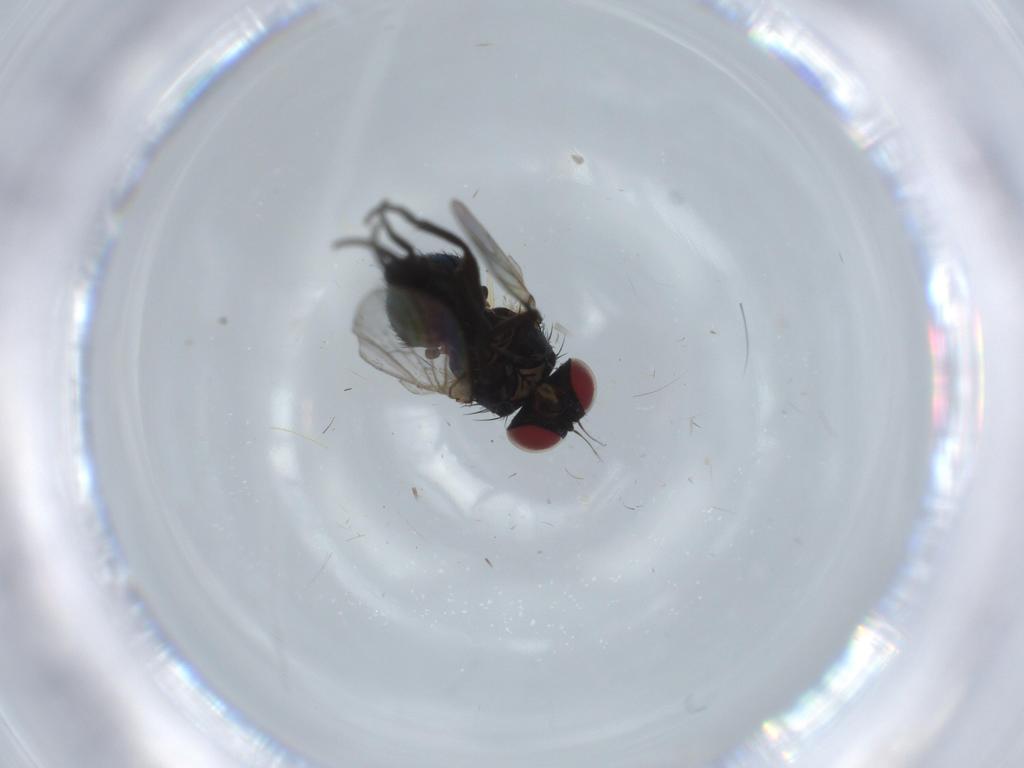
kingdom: Animalia
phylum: Arthropoda
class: Insecta
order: Diptera
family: Agromyzidae
